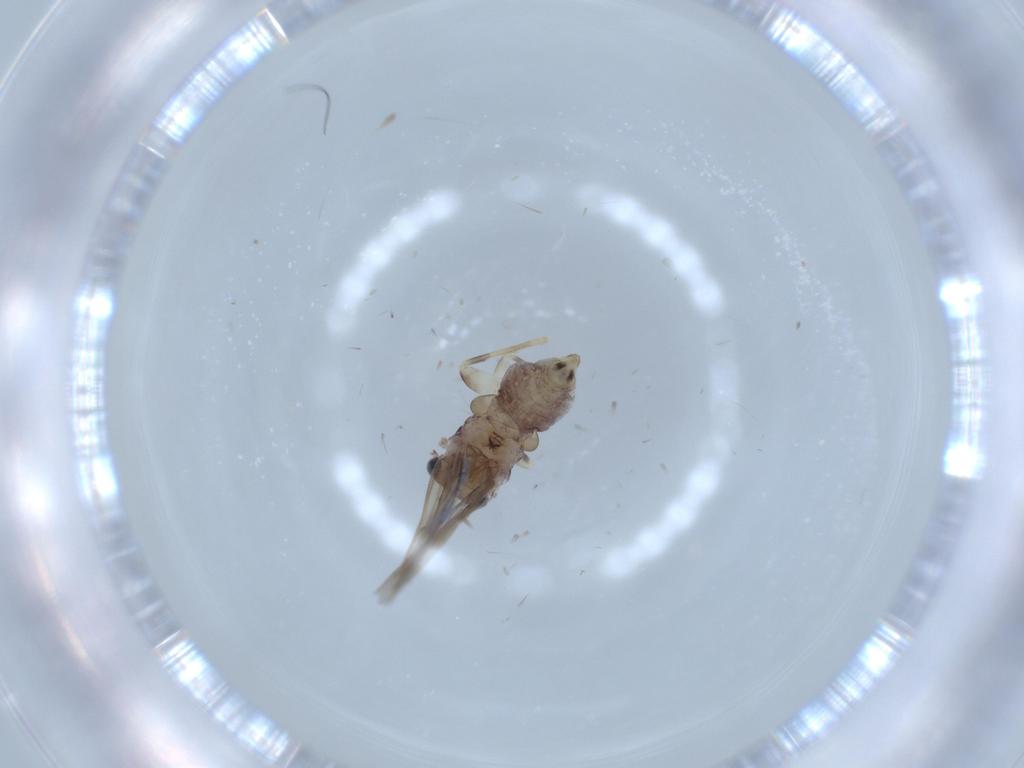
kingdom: Animalia
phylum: Arthropoda
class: Insecta
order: Psocodea
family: Lepidopsocidae
